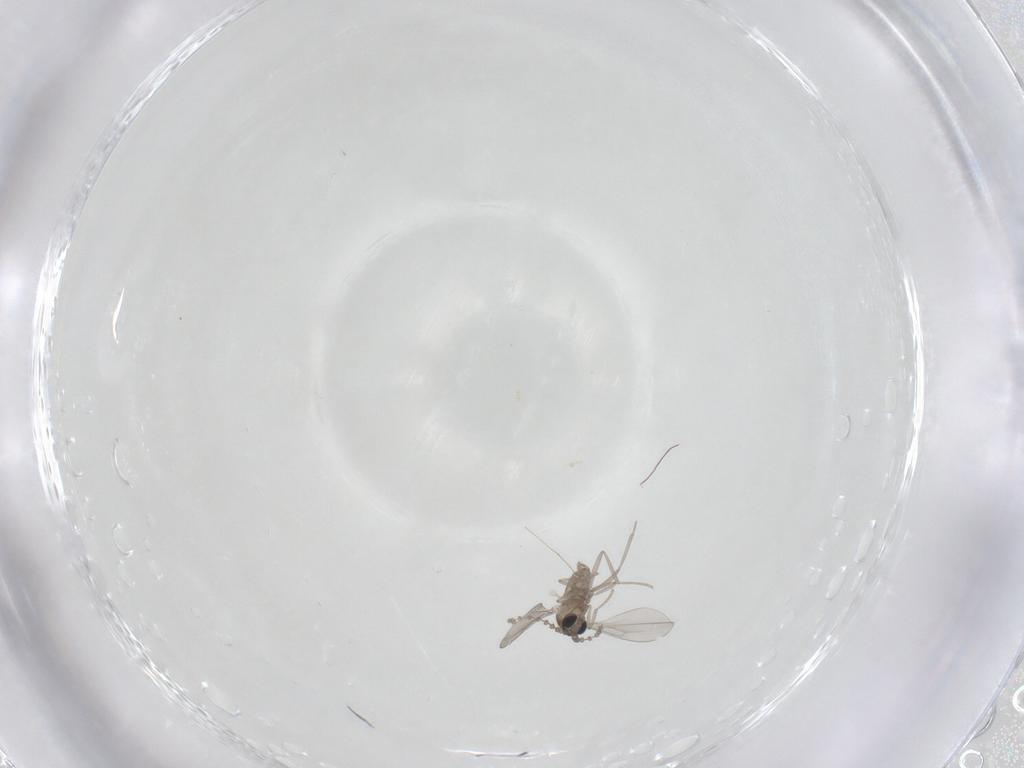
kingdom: Animalia
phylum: Arthropoda
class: Insecta
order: Diptera
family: Cecidomyiidae
